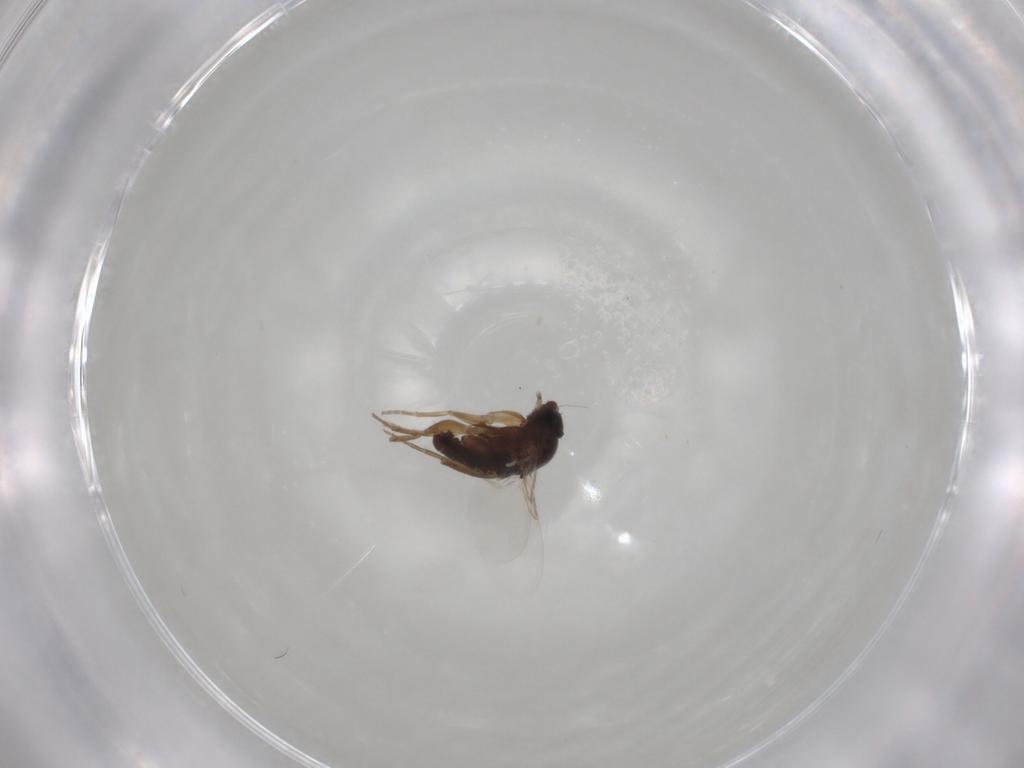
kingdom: Animalia
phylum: Arthropoda
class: Insecta
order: Diptera
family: Phoridae
